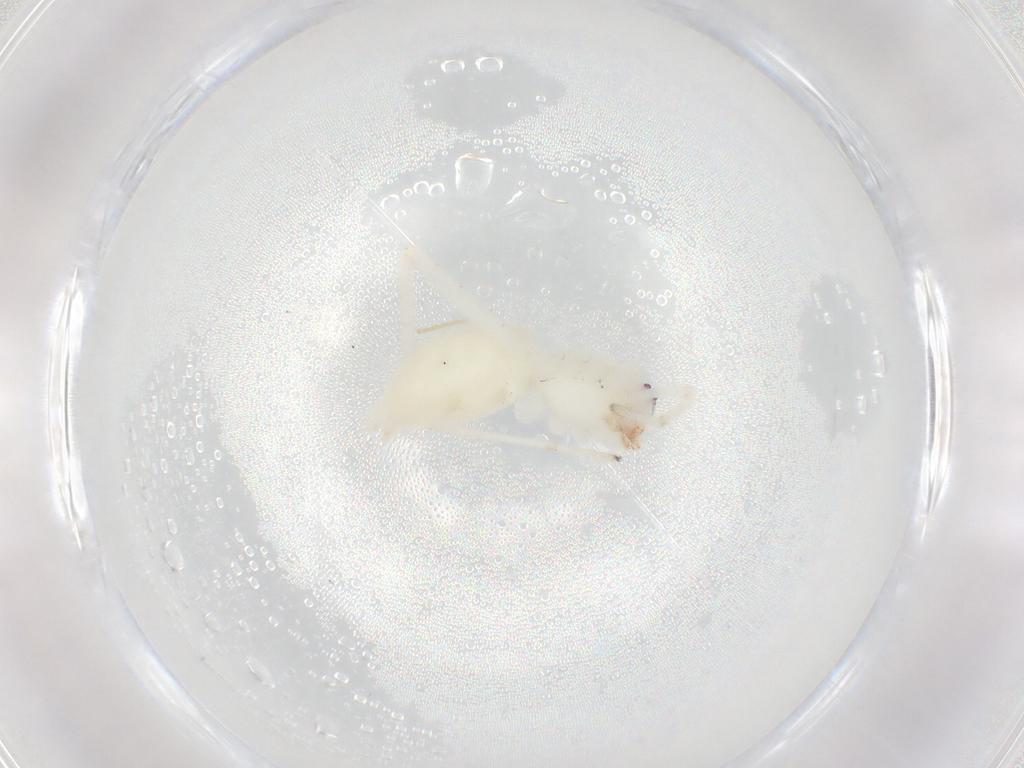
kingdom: Animalia
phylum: Arthropoda
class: Arachnida
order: Araneae
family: Anyphaenidae
